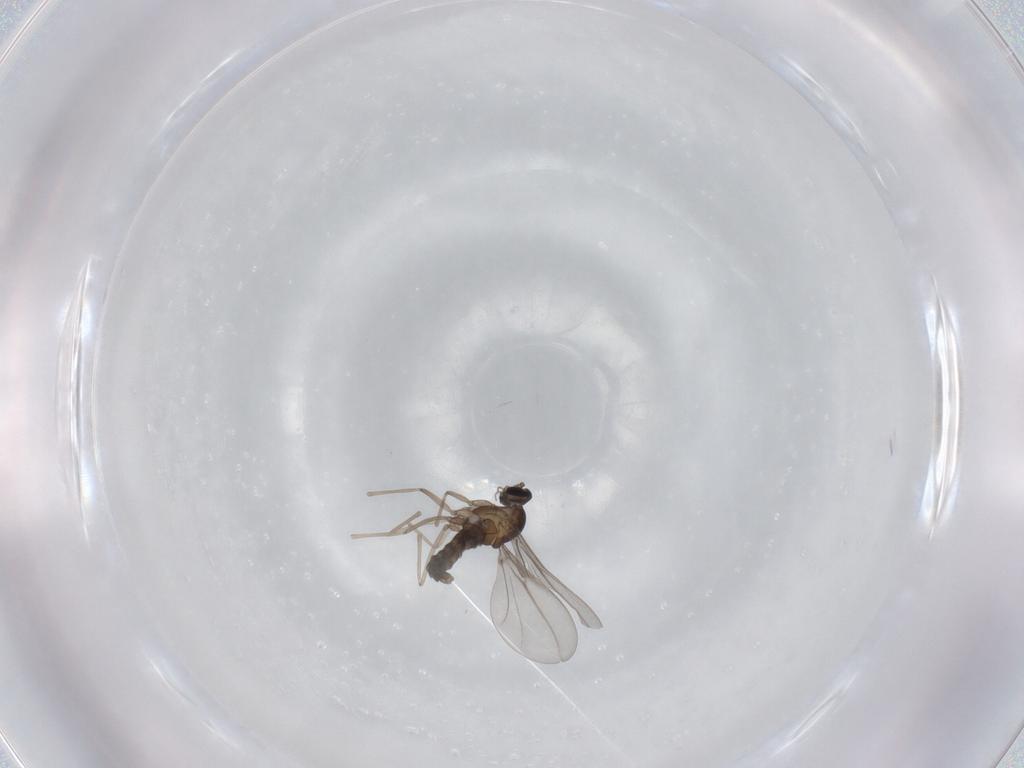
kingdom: Animalia
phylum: Arthropoda
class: Insecta
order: Diptera
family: Cecidomyiidae
